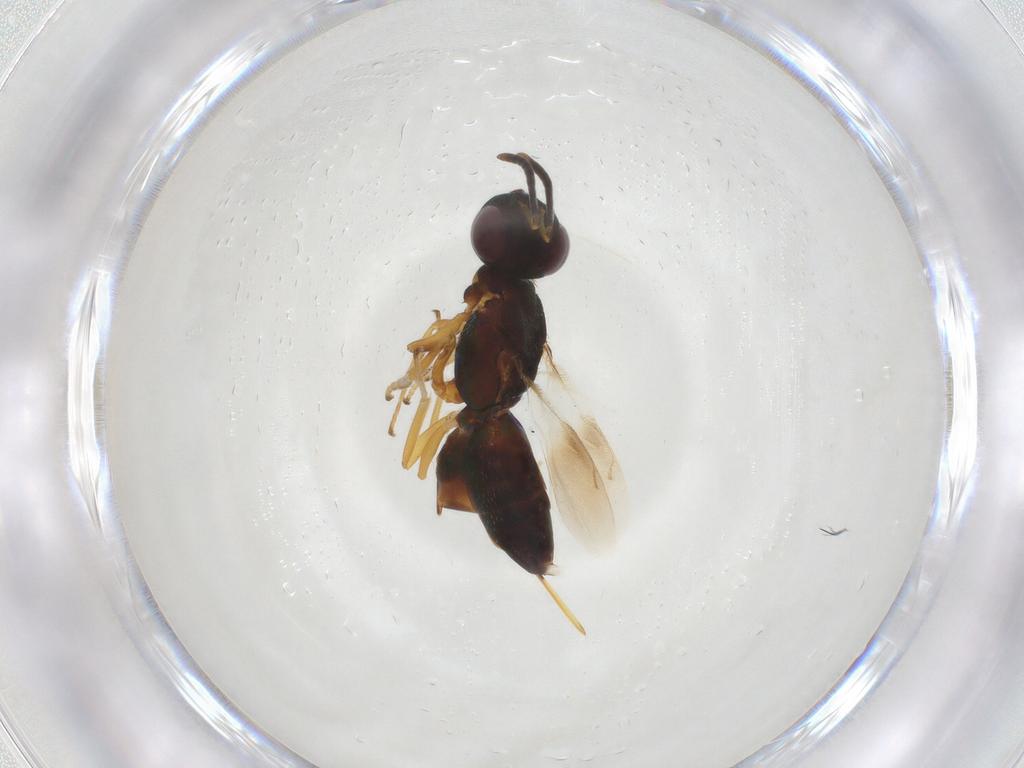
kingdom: Animalia
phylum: Arthropoda
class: Insecta
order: Hymenoptera
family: Eupelmidae
